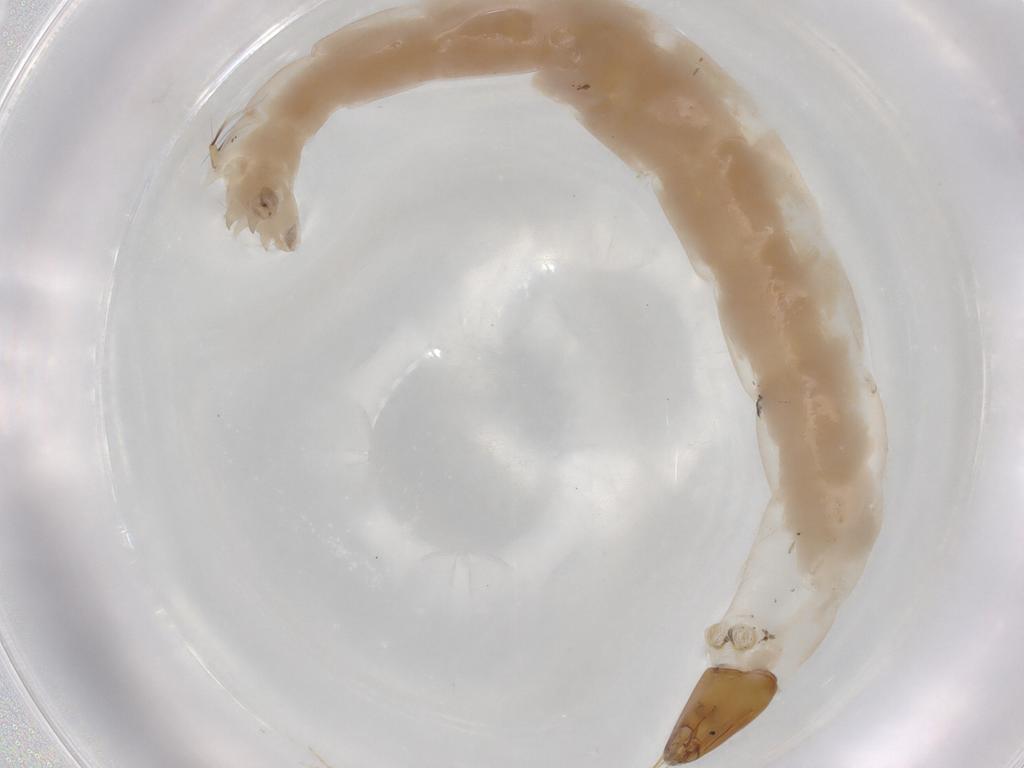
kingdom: Animalia
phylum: Arthropoda
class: Insecta
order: Diptera
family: Chironomidae
